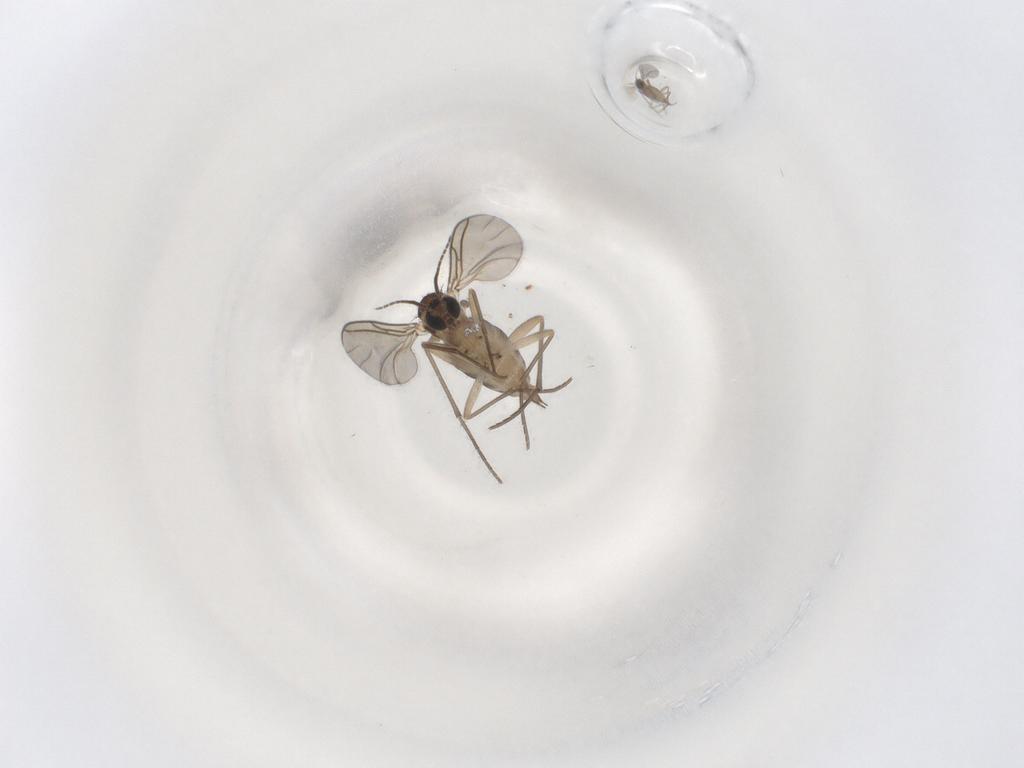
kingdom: Animalia
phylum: Arthropoda
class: Insecta
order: Diptera
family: Sciaridae
